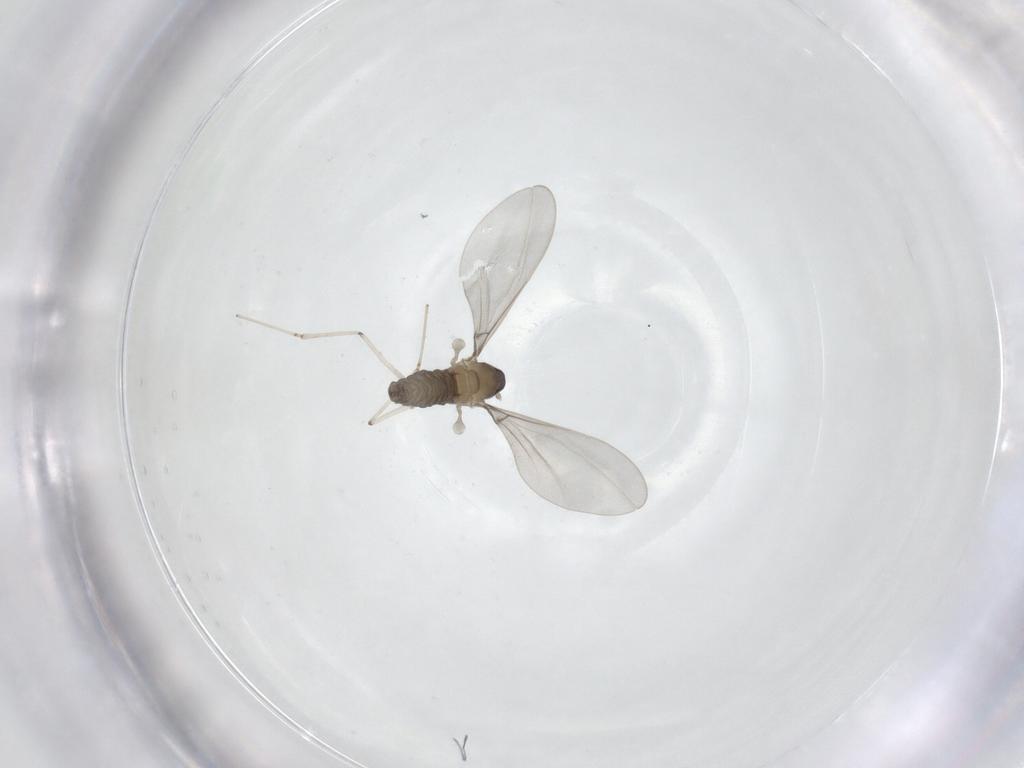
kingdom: Animalia
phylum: Arthropoda
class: Insecta
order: Diptera
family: Cecidomyiidae
